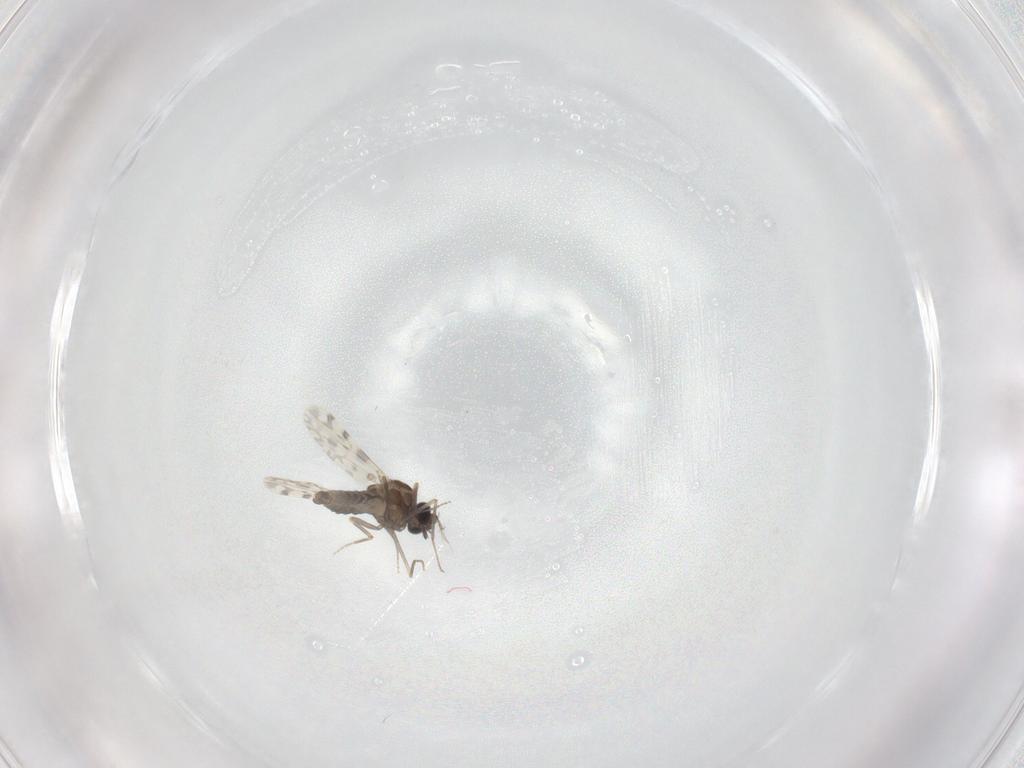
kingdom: Animalia
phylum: Arthropoda
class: Insecta
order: Diptera
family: Ceratopogonidae
